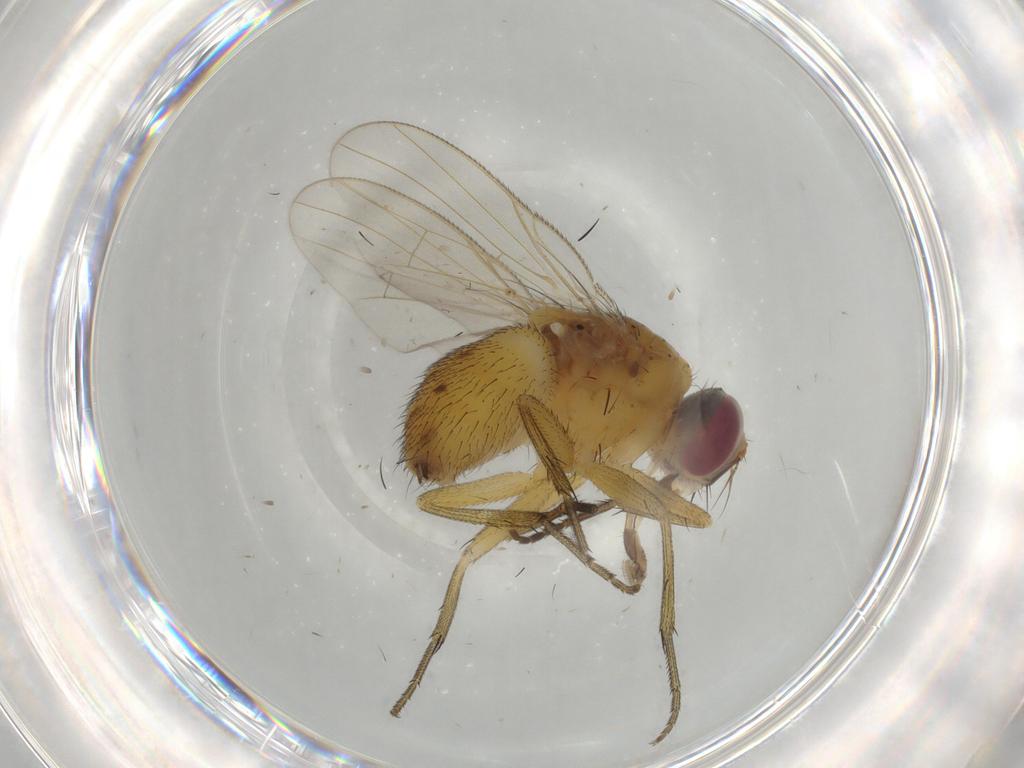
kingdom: Animalia
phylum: Arthropoda
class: Insecta
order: Diptera
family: Muscidae
